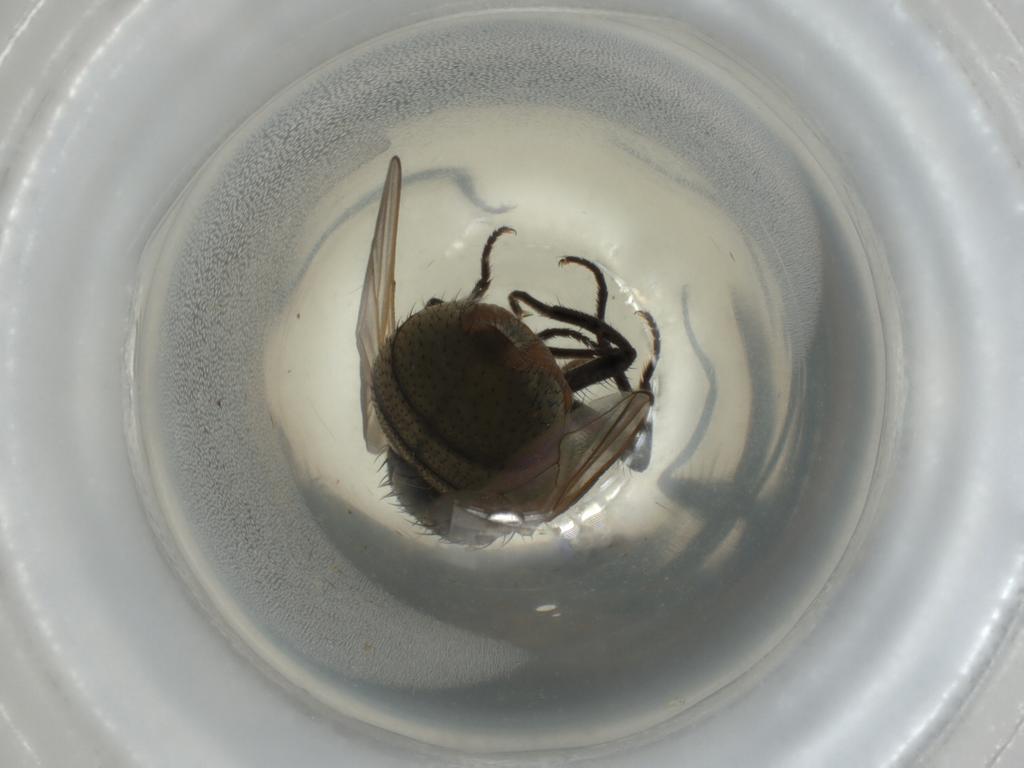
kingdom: Animalia
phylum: Arthropoda
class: Insecta
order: Diptera
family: Muscidae
